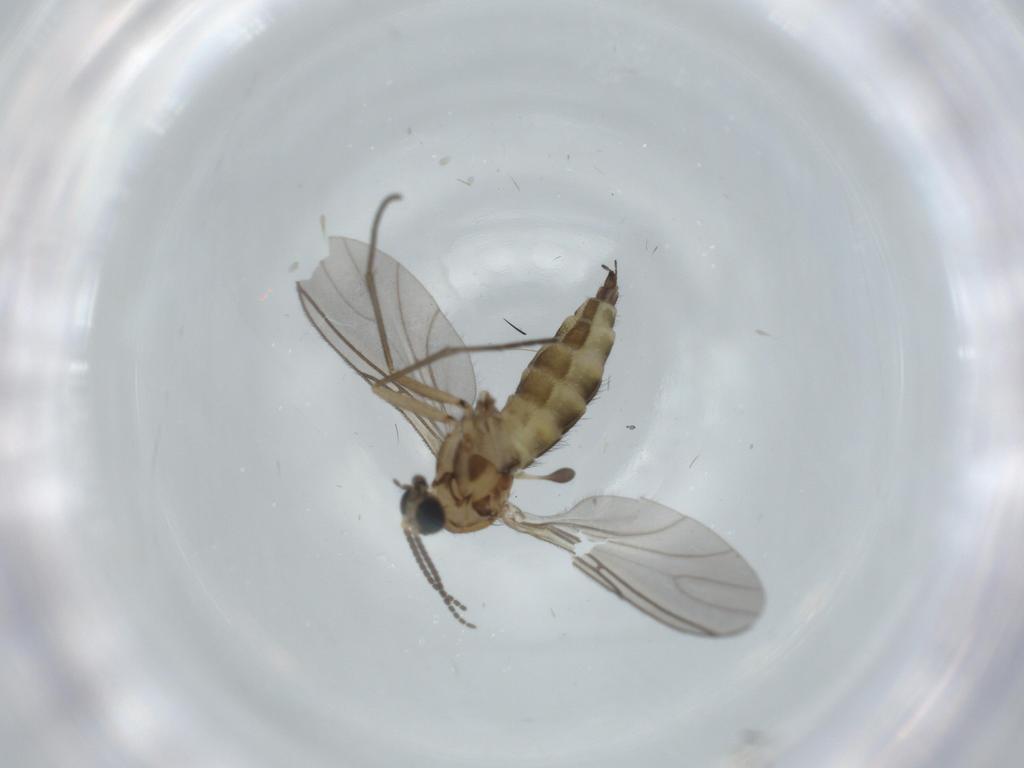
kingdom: Animalia
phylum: Arthropoda
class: Insecta
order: Diptera
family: Sciaridae
